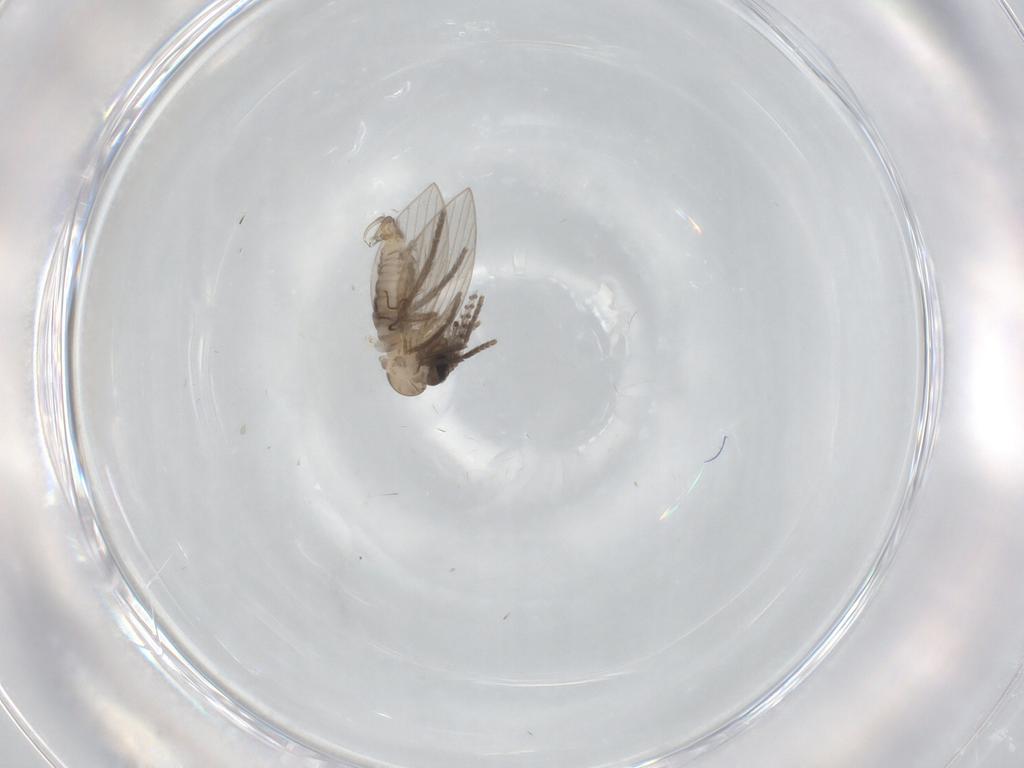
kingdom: Animalia
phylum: Arthropoda
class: Insecta
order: Diptera
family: Psychodidae
